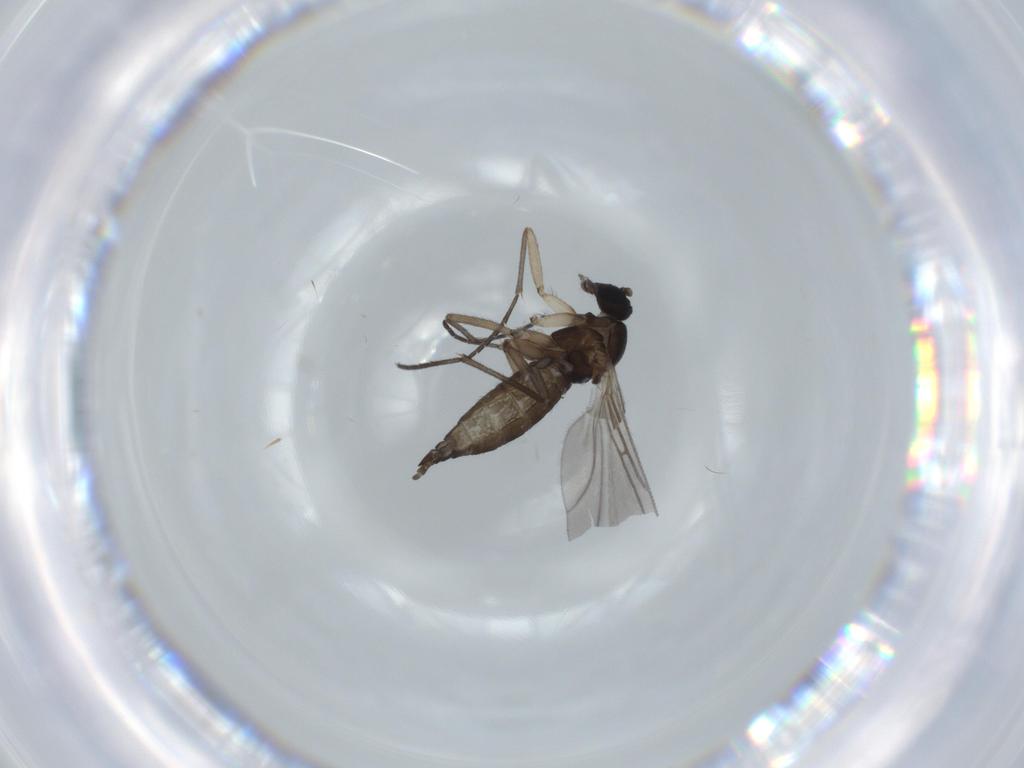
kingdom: Animalia
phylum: Arthropoda
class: Insecta
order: Diptera
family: Sciaridae
